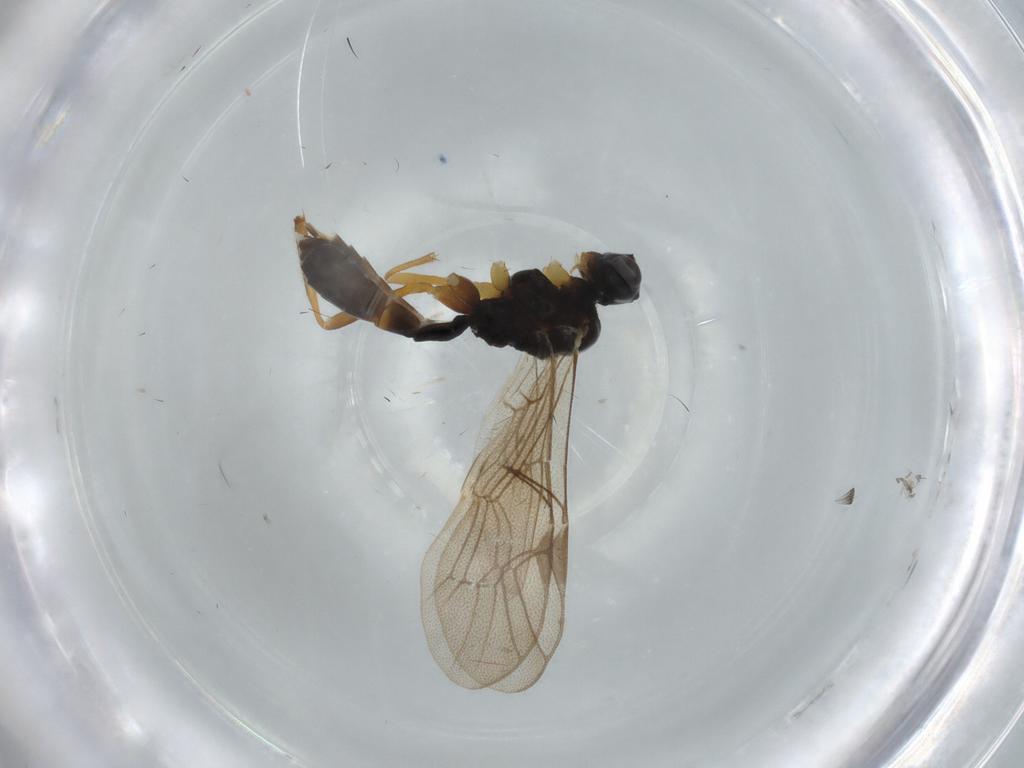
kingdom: Animalia
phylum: Arthropoda
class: Insecta
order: Hymenoptera
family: Ichneumonidae
